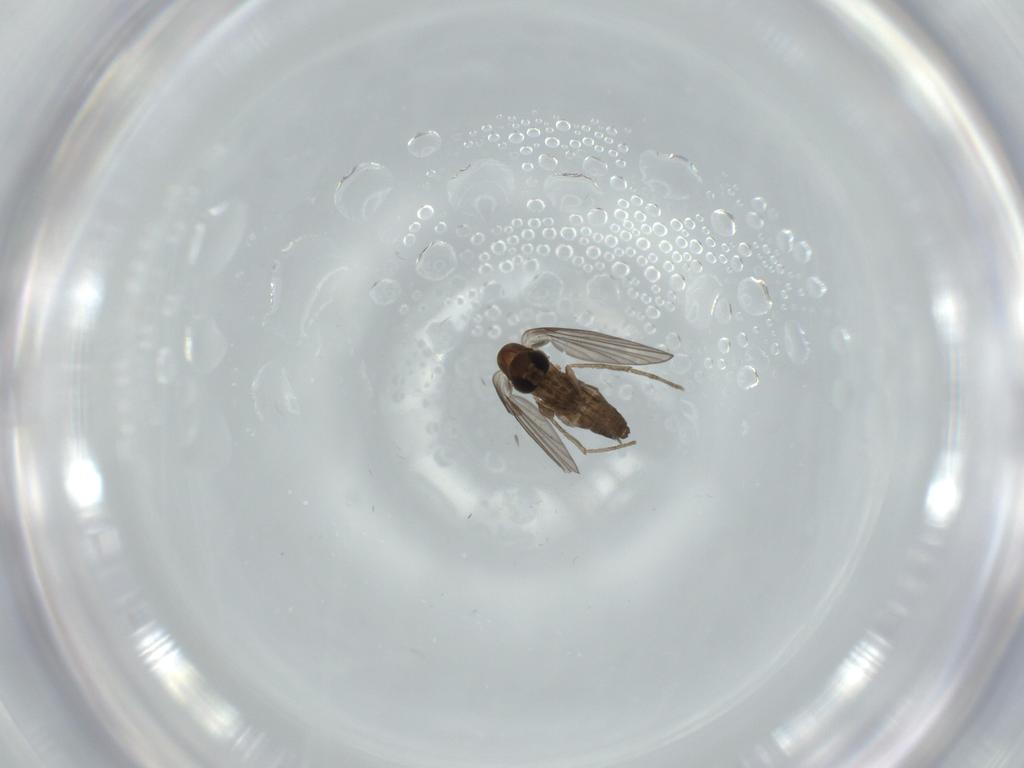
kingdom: Animalia
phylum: Arthropoda
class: Insecta
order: Diptera
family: Psychodidae
